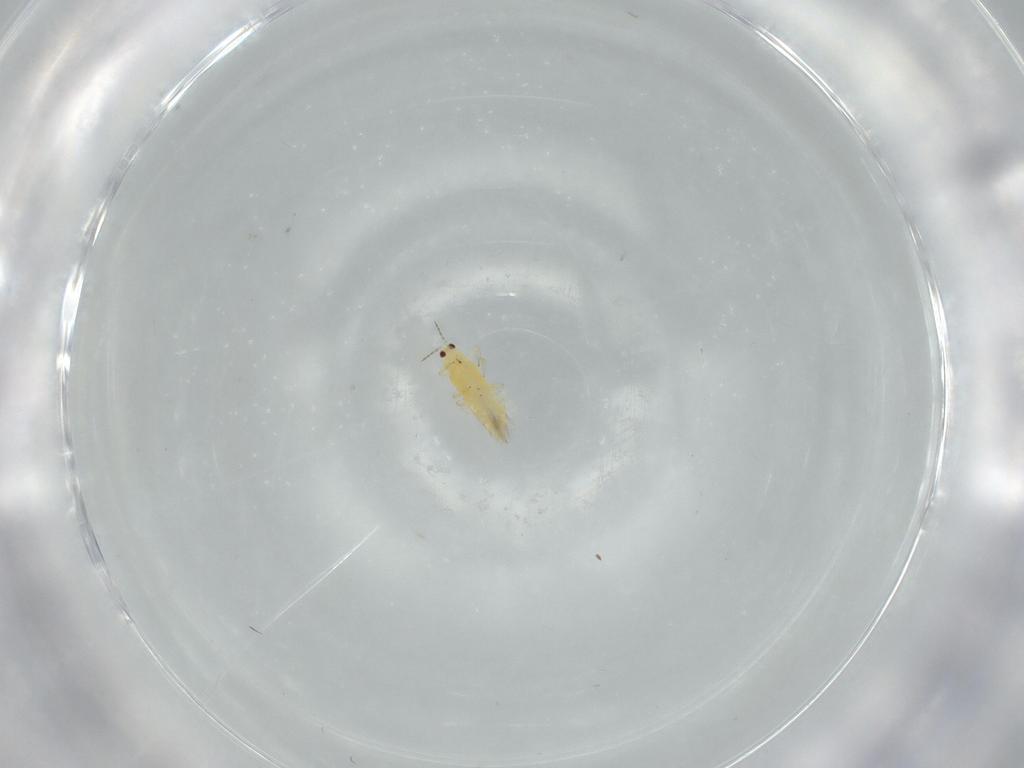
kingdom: Animalia
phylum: Arthropoda
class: Insecta
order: Thysanoptera
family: Thripidae
